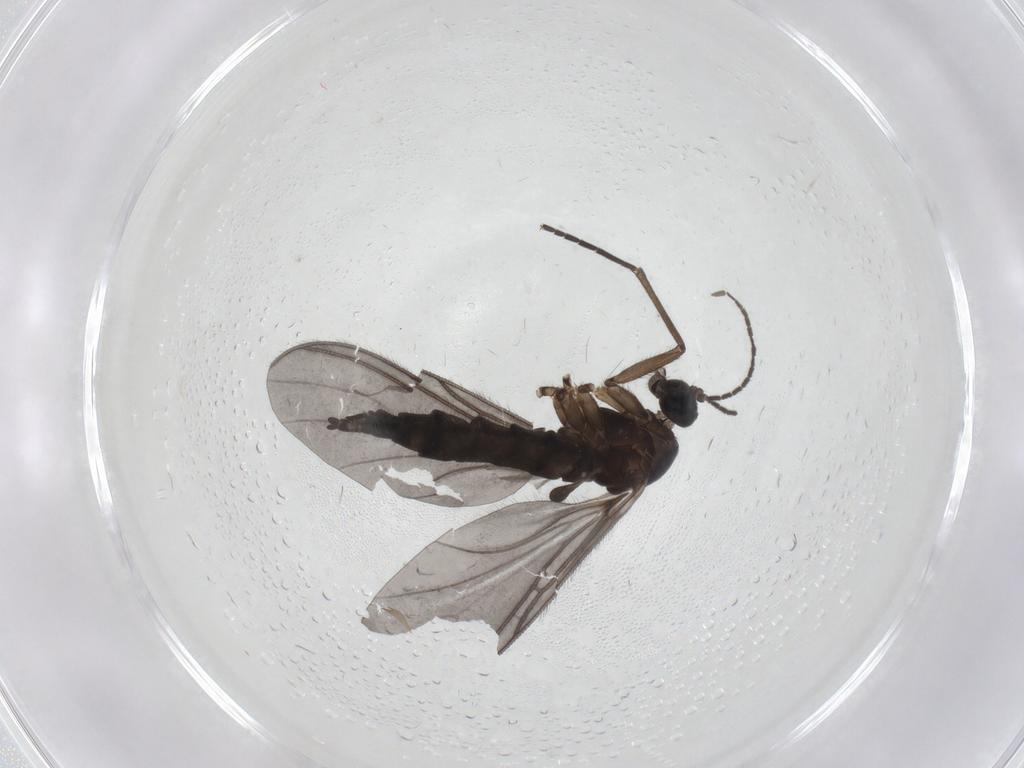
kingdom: Animalia
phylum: Arthropoda
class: Insecta
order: Diptera
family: Sciaridae
